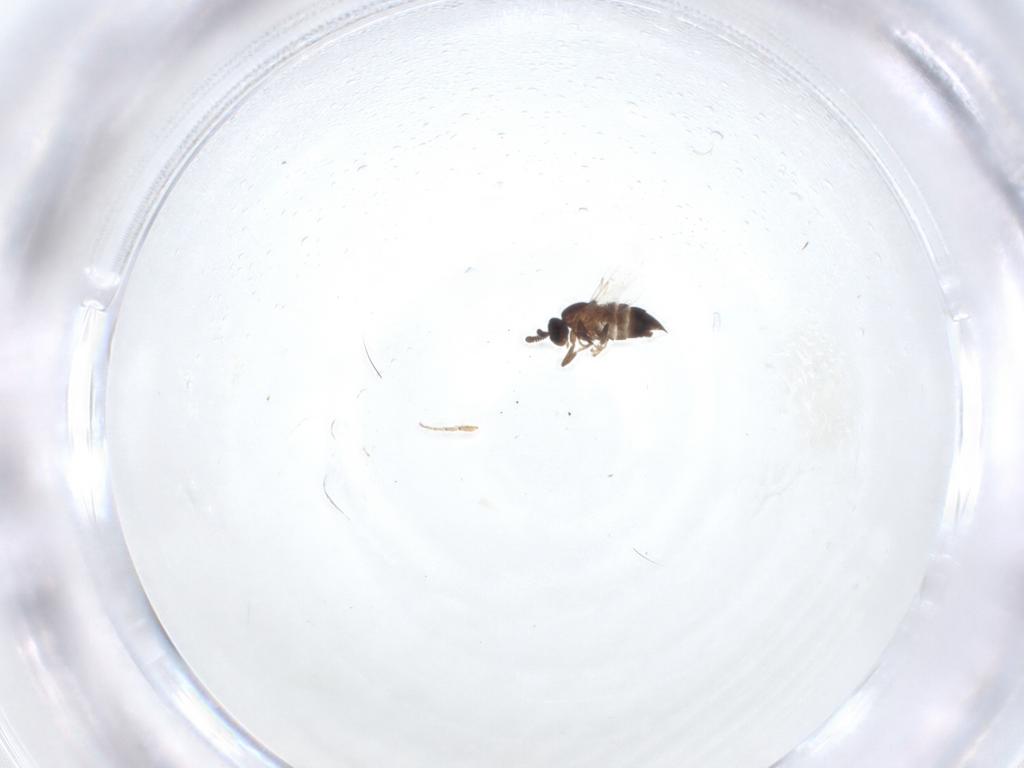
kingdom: Animalia
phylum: Arthropoda
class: Insecta
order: Diptera
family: Scatopsidae
